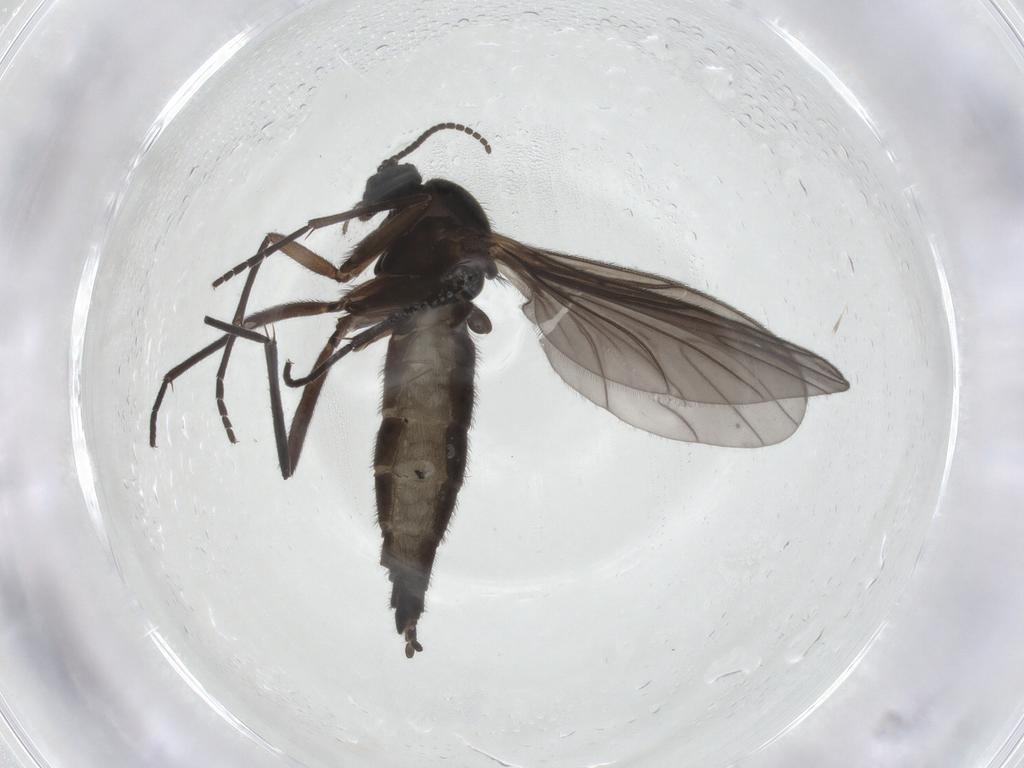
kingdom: Animalia
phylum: Arthropoda
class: Insecta
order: Diptera
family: Sciaridae
